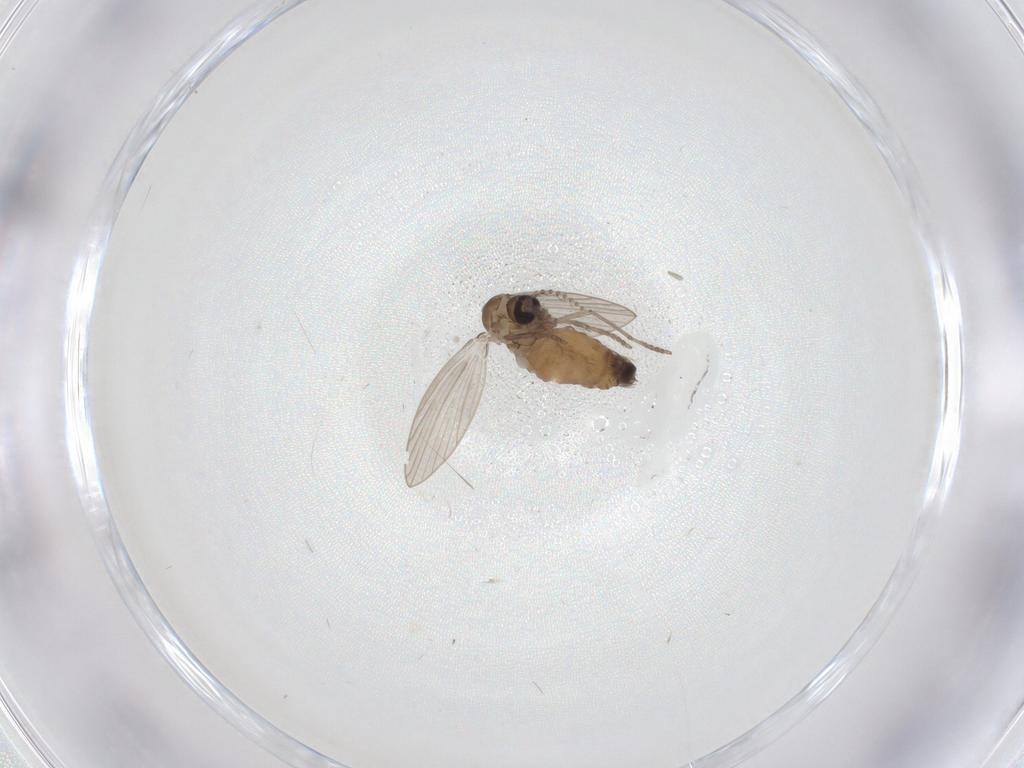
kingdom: Animalia
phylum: Arthropoda
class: Insecta
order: Diptera
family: Psychodidae
